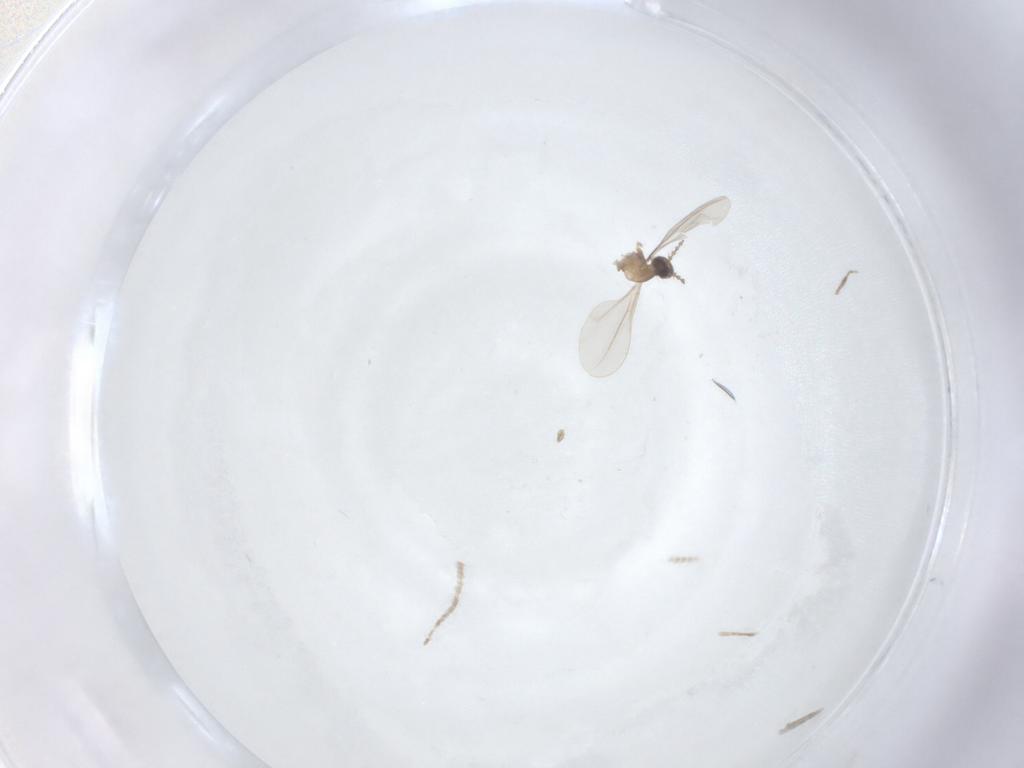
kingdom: Animalia
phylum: Arthropoda
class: Insecta
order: Diptera
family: Cecidomyiidae
